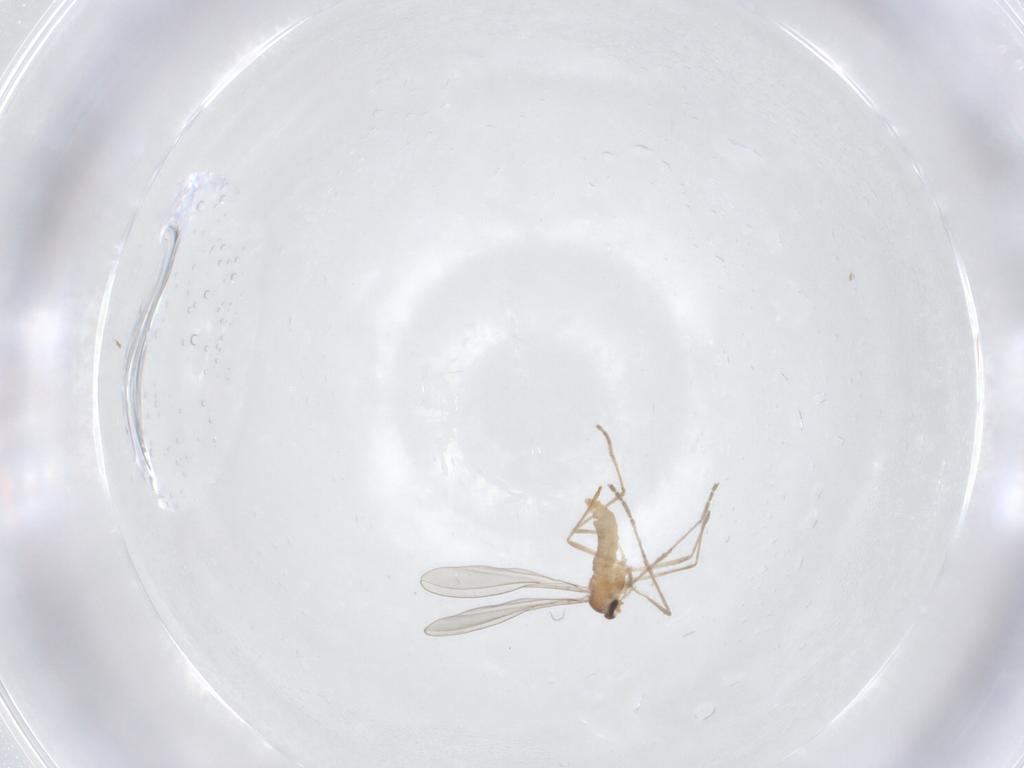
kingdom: Animalia
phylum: Arthropoda
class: Insecta
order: Diptera
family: Cecidomyiidae
